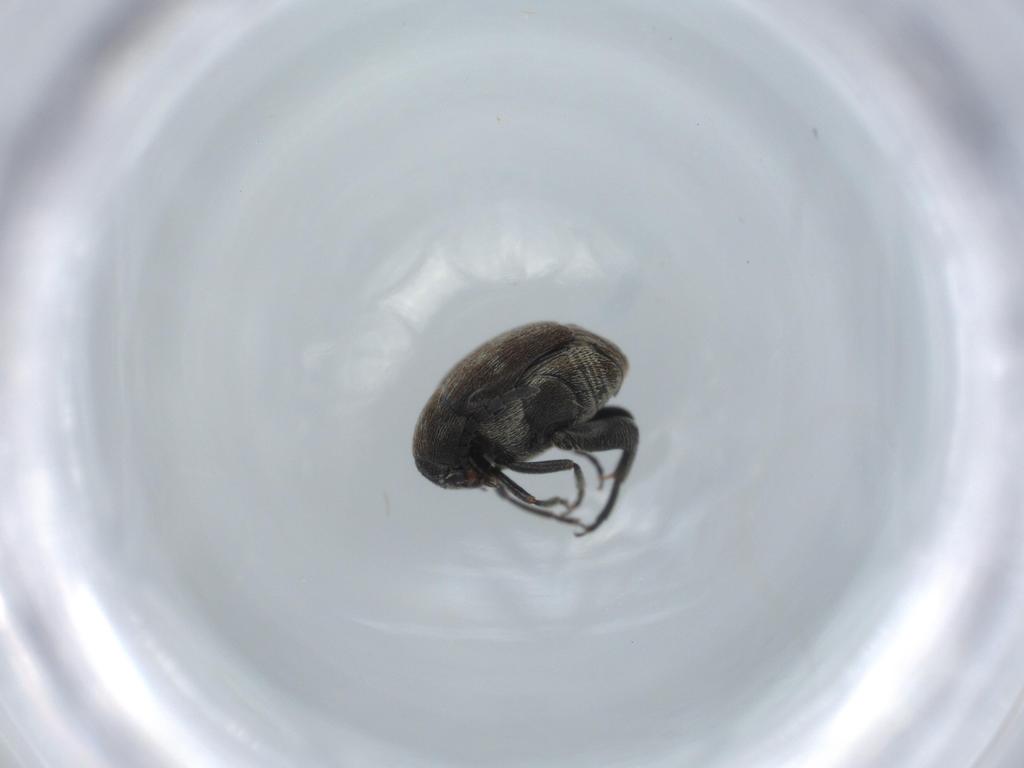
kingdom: Animalia
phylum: Arthropoda
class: Insecta
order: Coleoptera
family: Chrysomelidae
